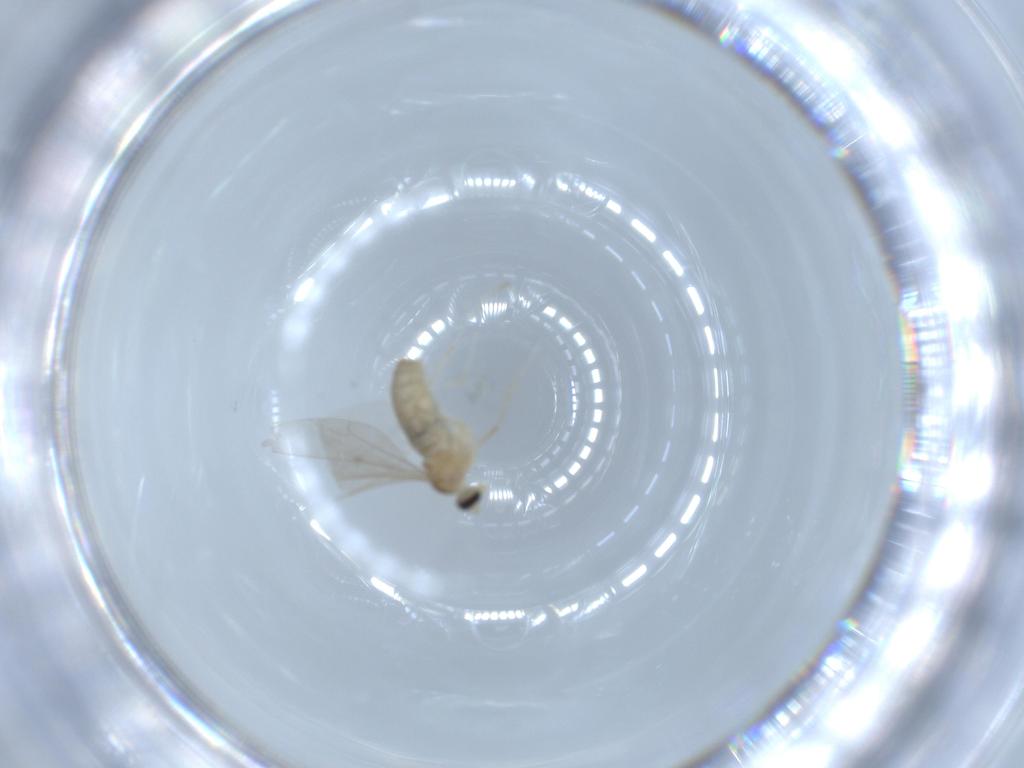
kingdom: Animalia
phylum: Arthropoda
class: Insecta
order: Diptera
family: Cecidomyiidae
